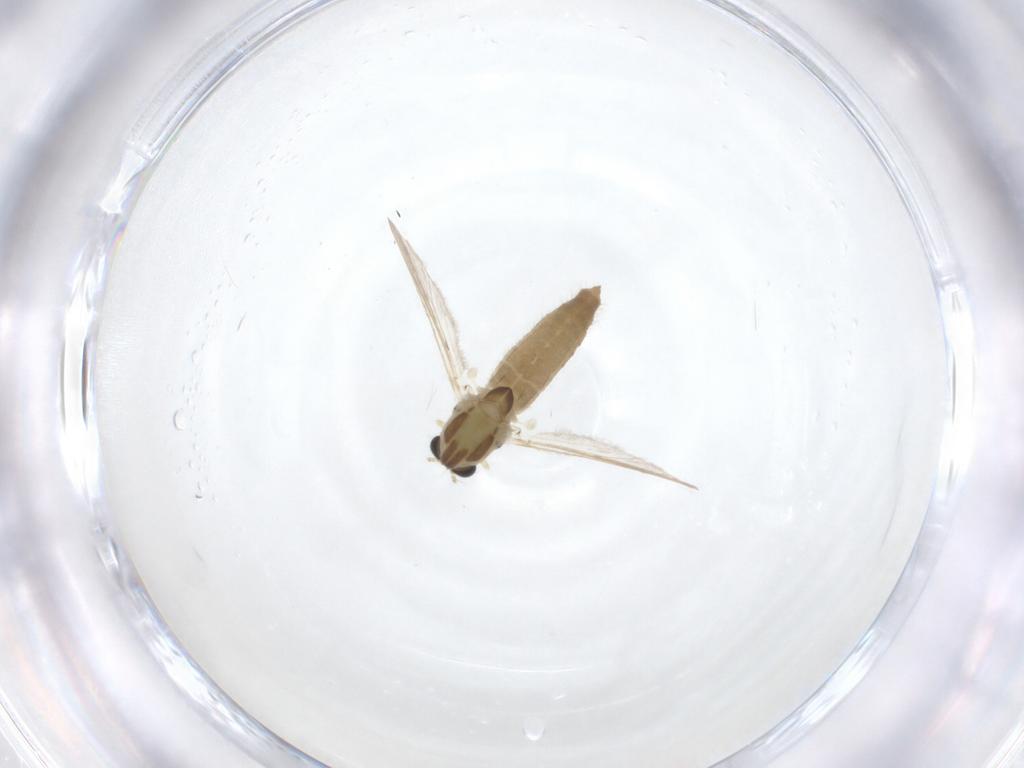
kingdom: Animalia
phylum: Arthropoda
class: Insecta
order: Diptera
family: Chironomidae
